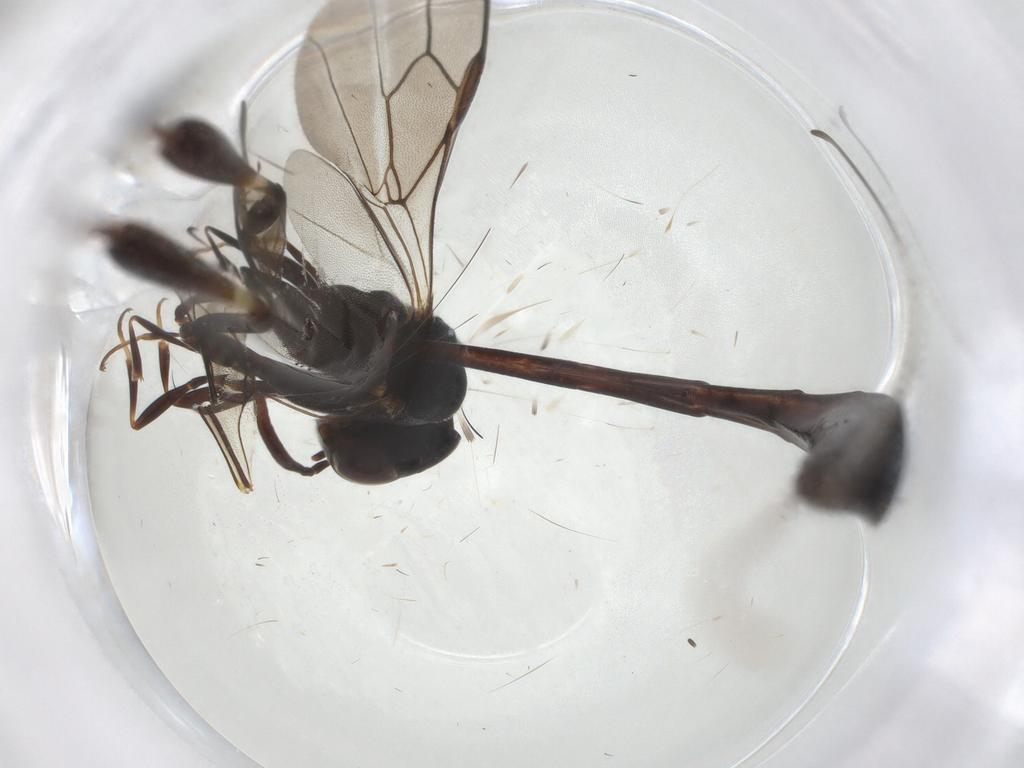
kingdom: Animalia
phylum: Arthropoda
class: Insecta
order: Hymenoptera
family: Gasteruptiidae
